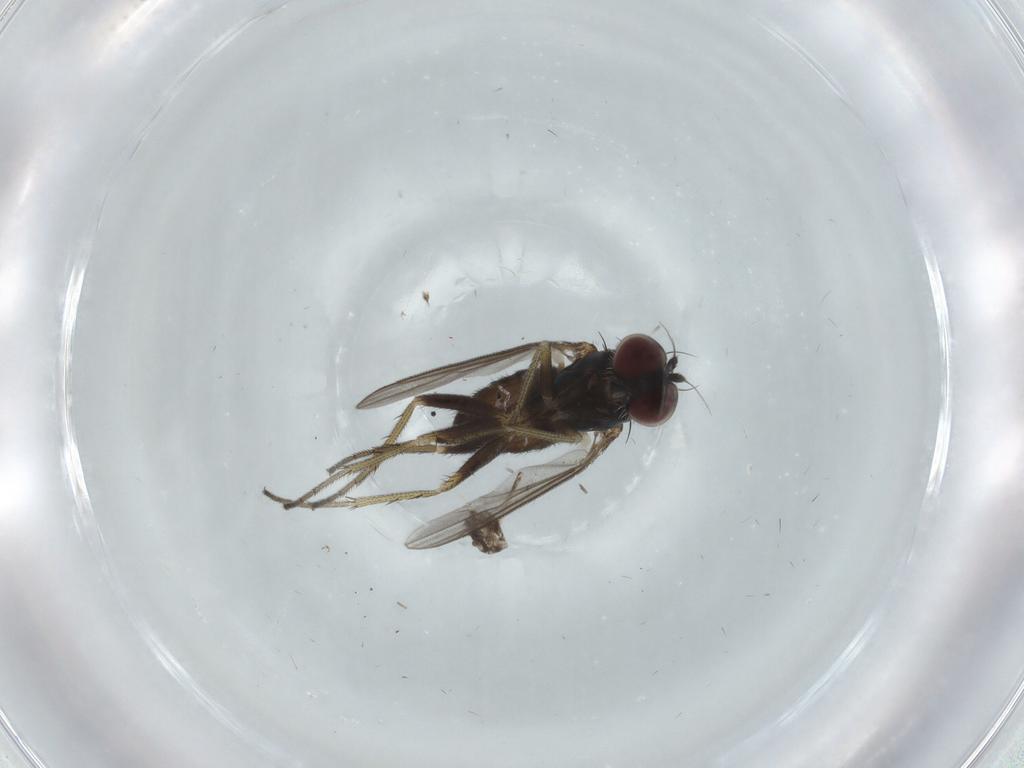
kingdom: Animalia
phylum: Arthropoda
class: Insecta
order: Diptera
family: Dolichopodidae
